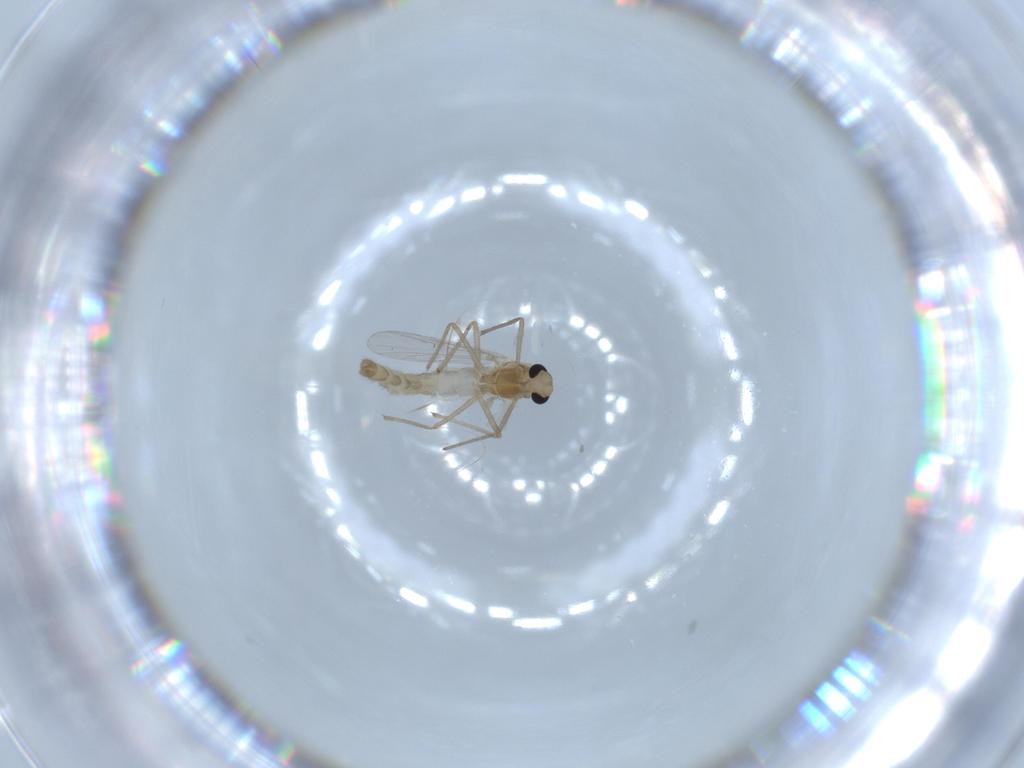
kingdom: Animalia
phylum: Arthropoda
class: Insecta
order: Diptera
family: Chironomidae
